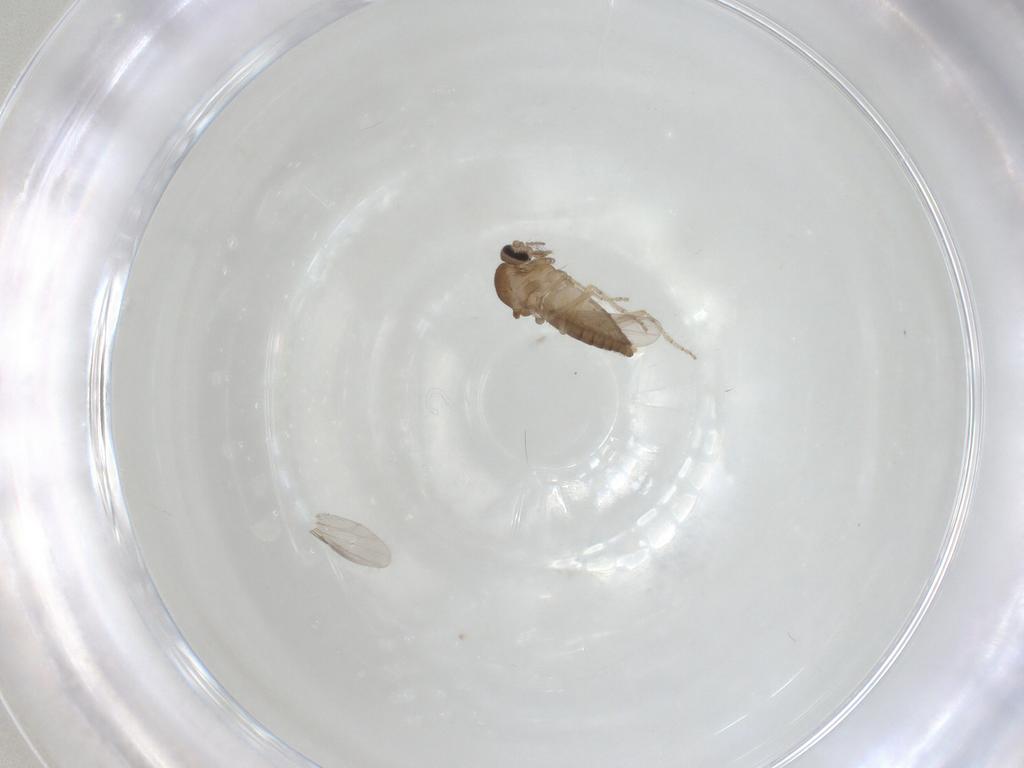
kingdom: Animalia
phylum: Arthropoda
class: Insecta
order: Diptera
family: Ceratopogonidae
